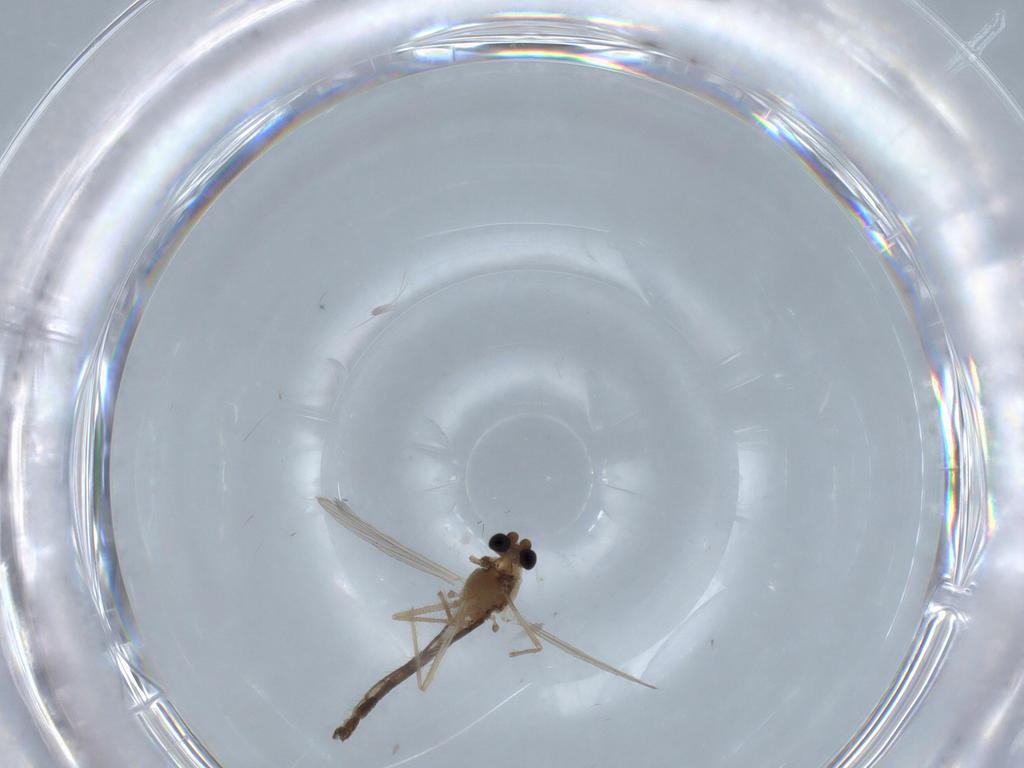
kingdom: Animalia
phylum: Arthropoda
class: Insecta
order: Diptera
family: Chironomidae
